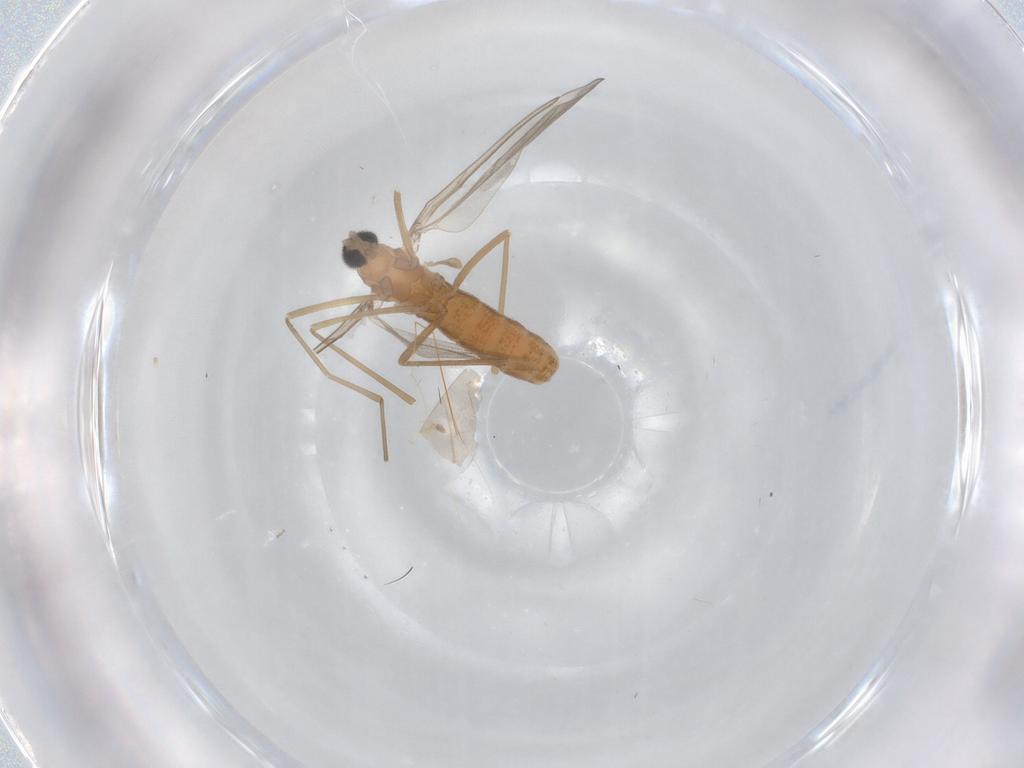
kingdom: Animalia
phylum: Arthropoda
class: Insecta
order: Diptera
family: Cecidomyiidae
